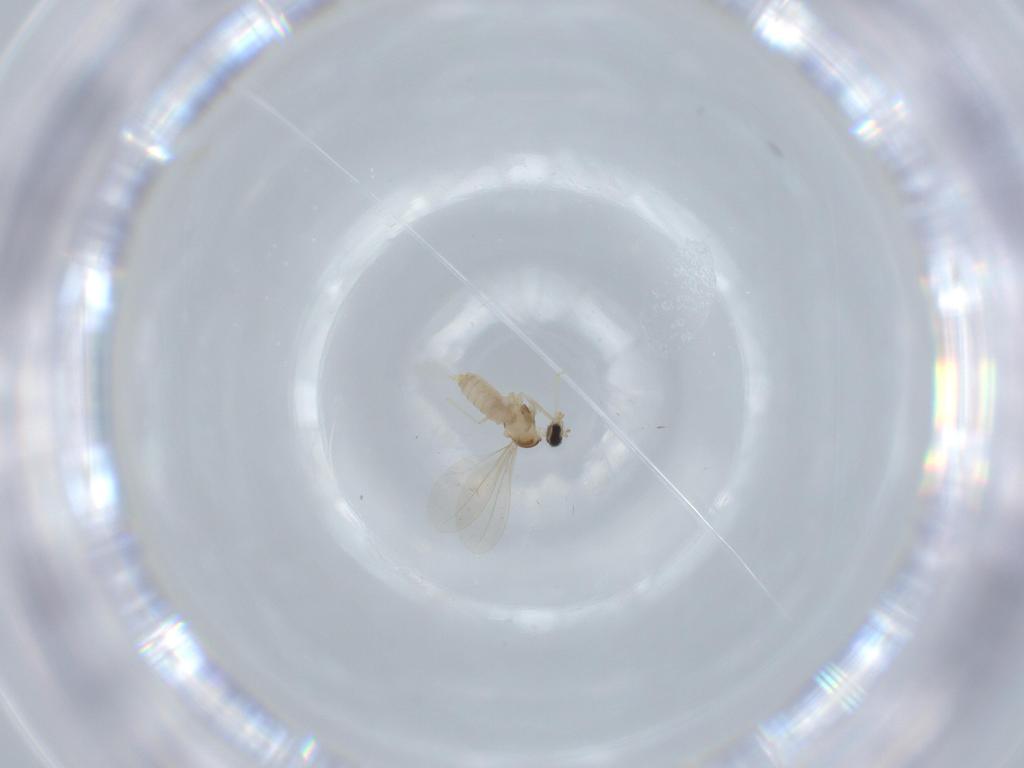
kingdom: Animalia
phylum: Arthropoda
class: Insecta
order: Diptera
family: Cecidomyiidae
